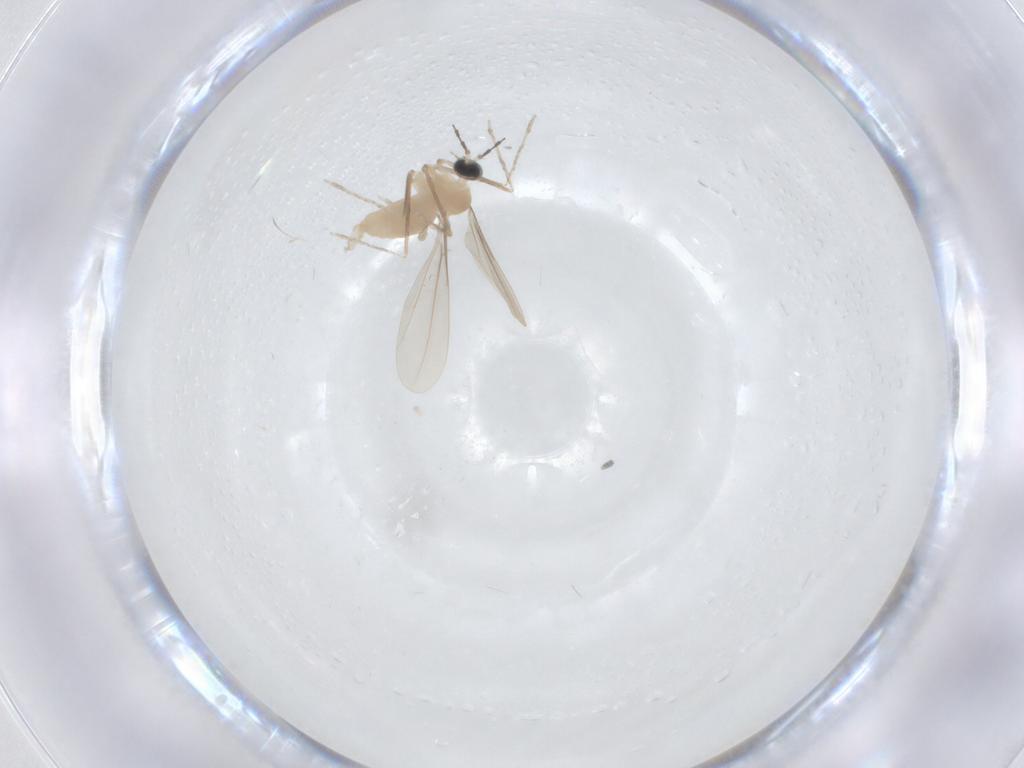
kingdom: Animalia
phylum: Arthropoda
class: Insecta
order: Diptera
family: Cecidomyiidae
